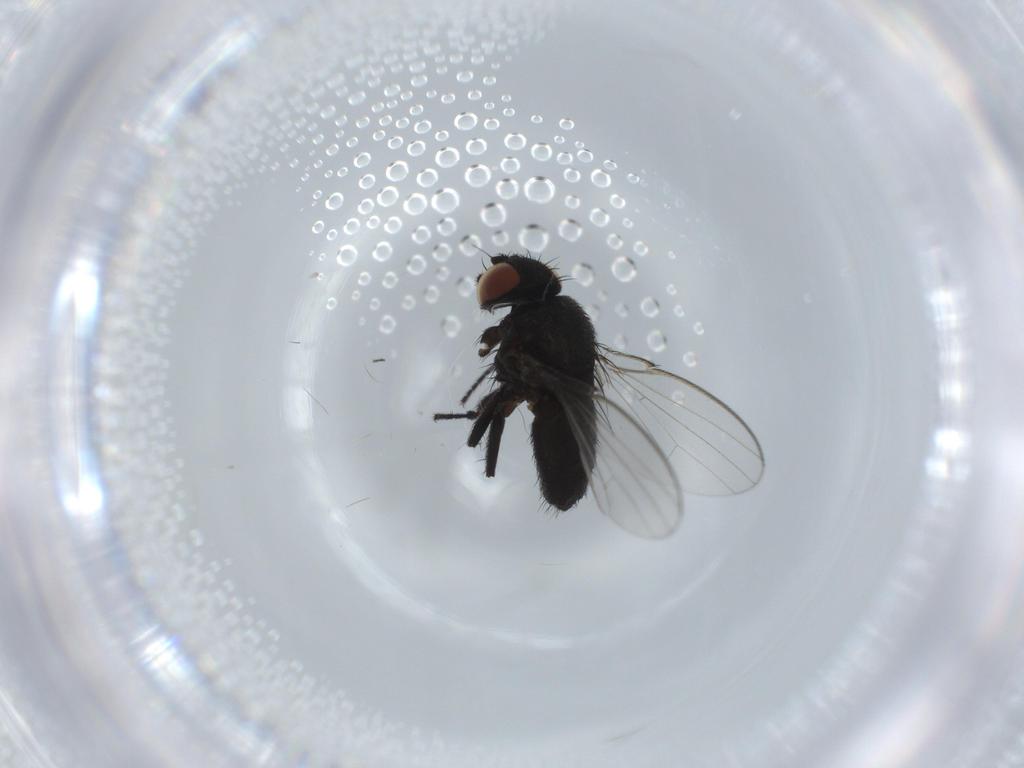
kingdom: Animalia
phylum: Arthropoda
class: Insecta
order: Diptera
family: Milichiidae
